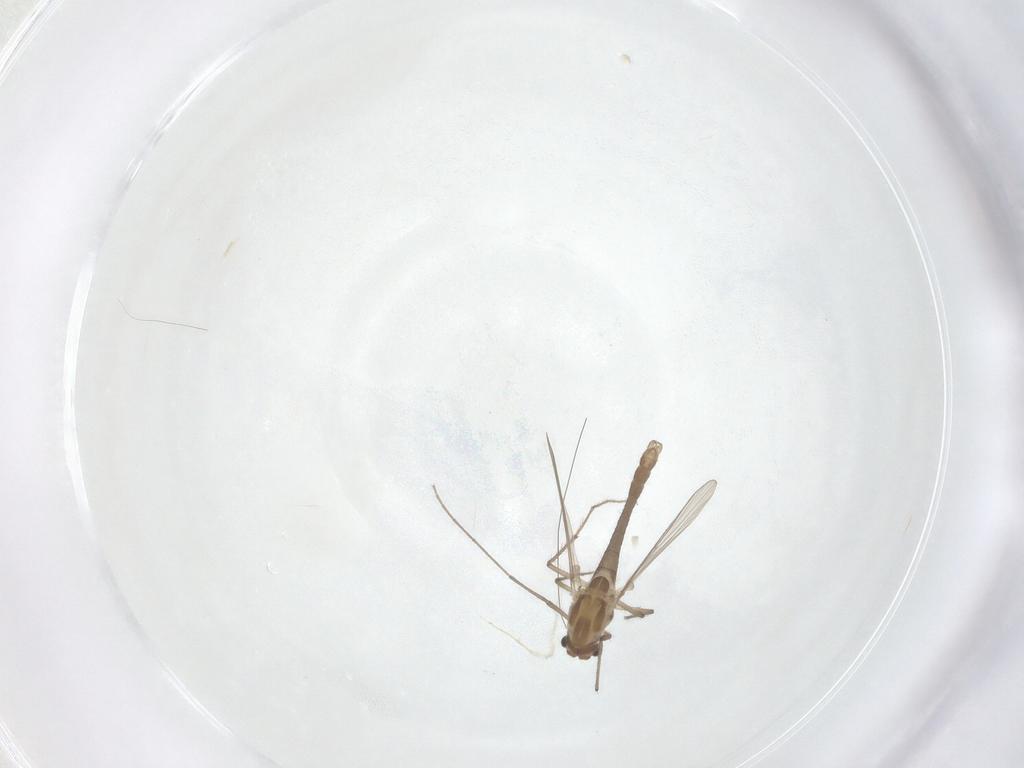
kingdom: Animalia
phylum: Arthropoda
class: Insecta
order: Diptera
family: Chironomidae
